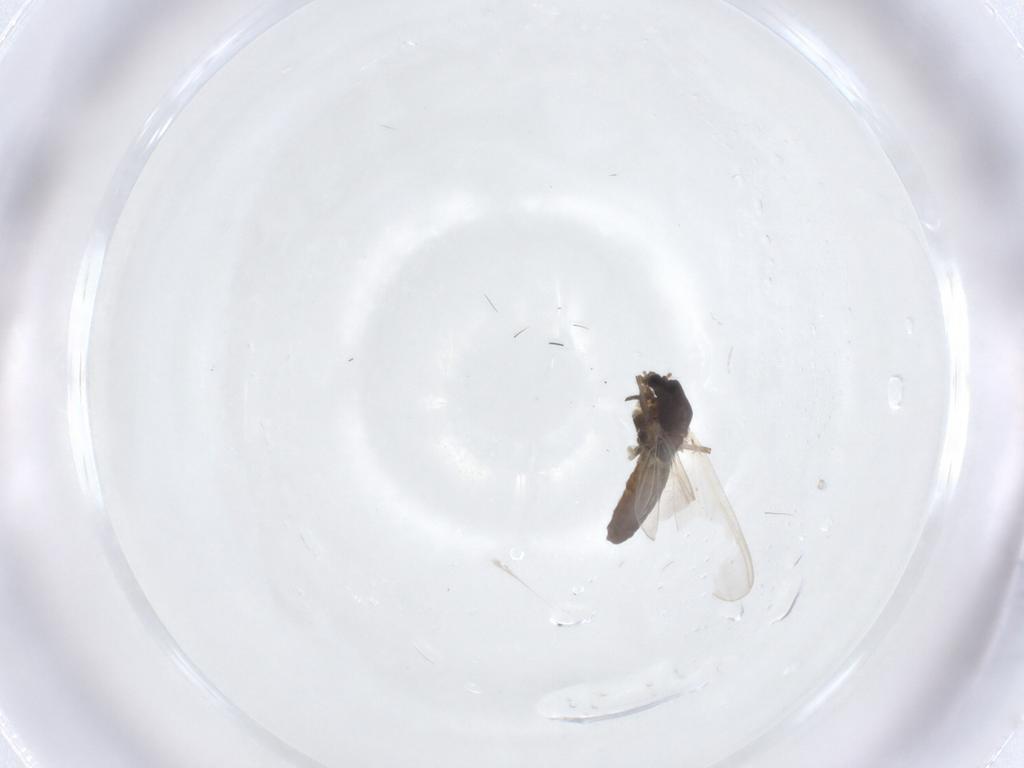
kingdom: Animalia
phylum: Arthropoda
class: Insecta
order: Diptera
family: Chironomidae
